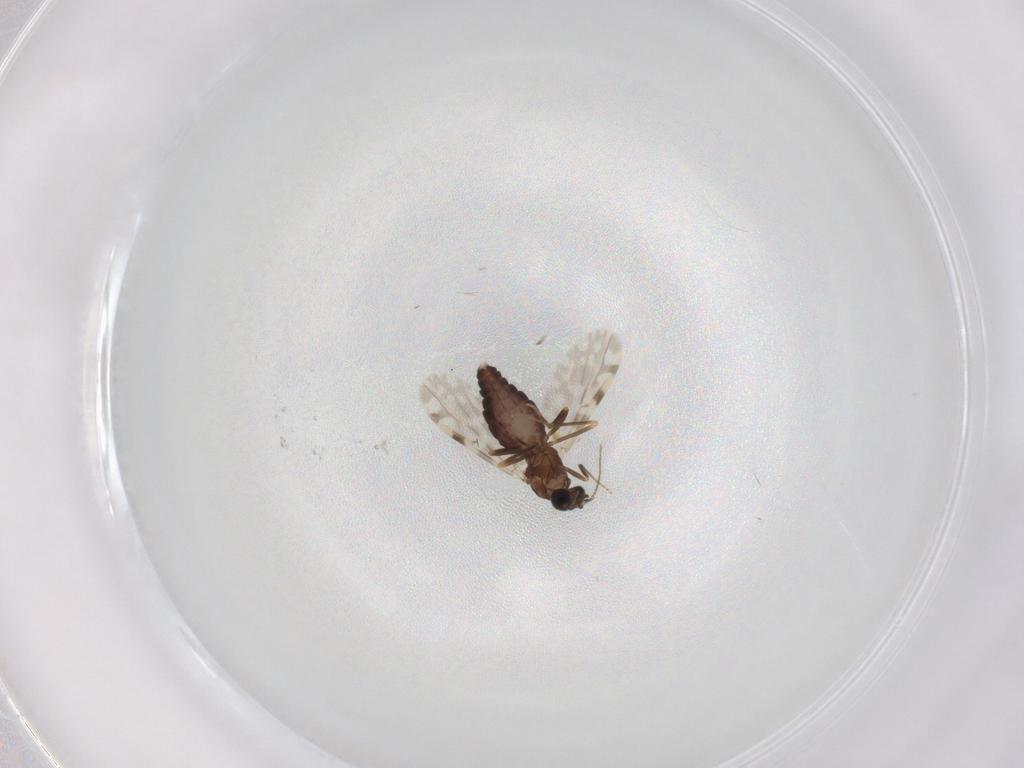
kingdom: Animalia
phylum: Arthropoda
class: Insecta
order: Diptera
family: Ceratopogonidae
